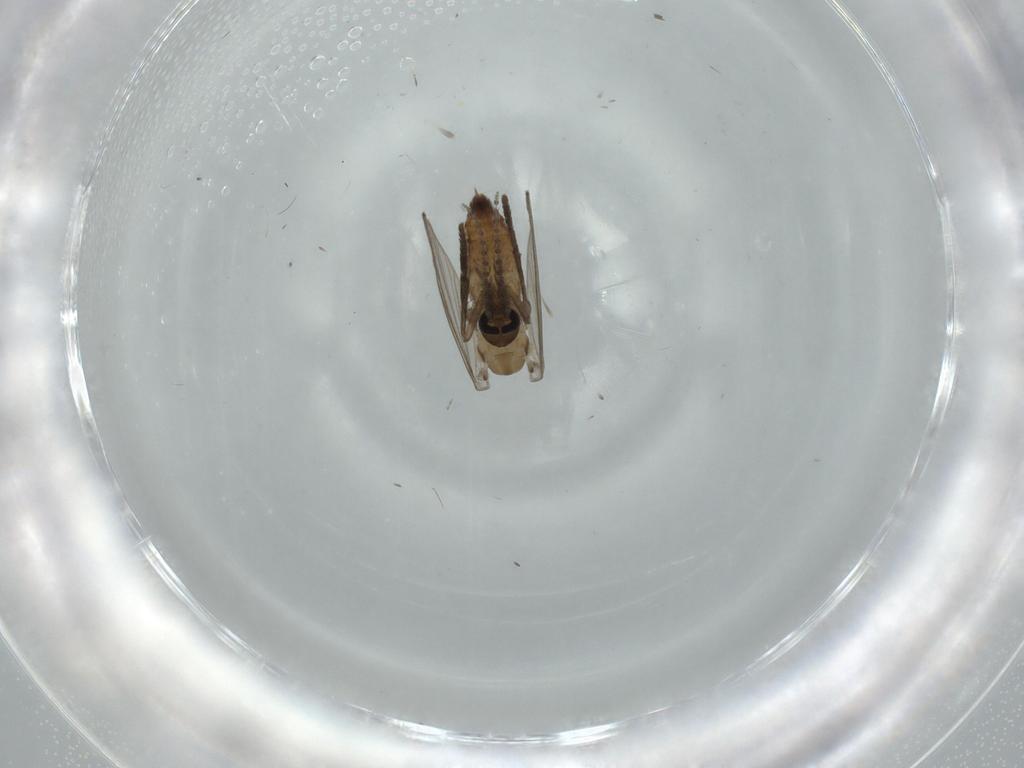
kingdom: Animalia
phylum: Arthropoda
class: Insecta
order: Diptera
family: Psychodidae
